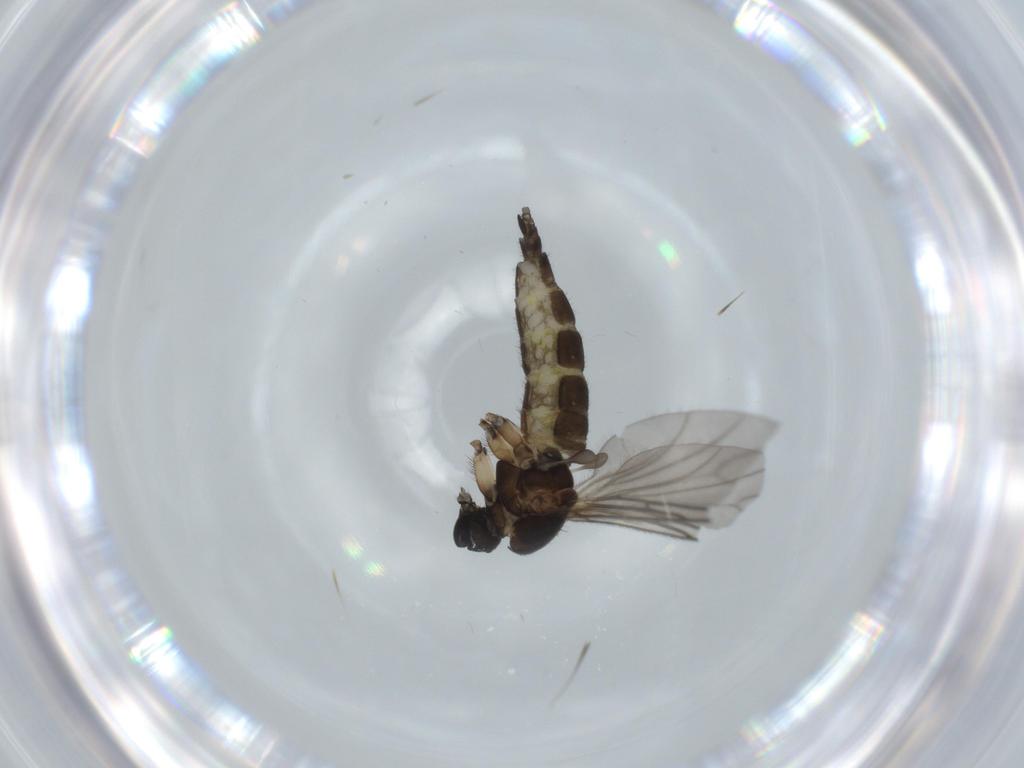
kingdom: Animalia
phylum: Arthropoda
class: Insecta
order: Diptera
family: Sciaridae
